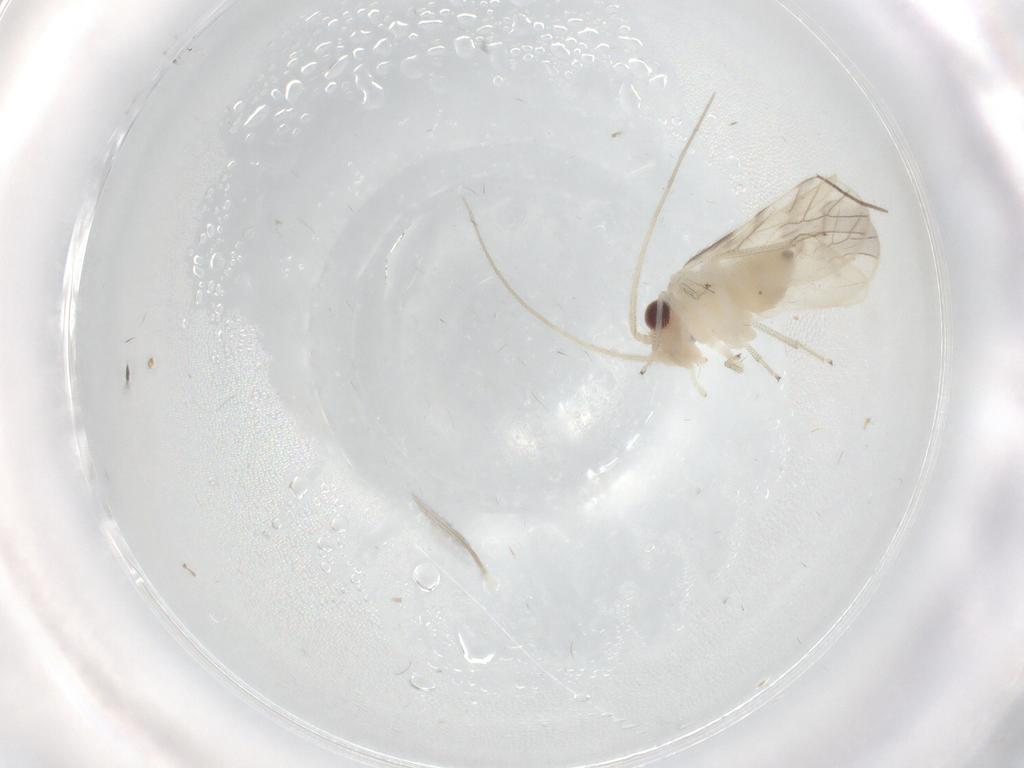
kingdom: Animalia
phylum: Arthropoda
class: Insecta
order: Psocodea
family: Caeciliusidae
